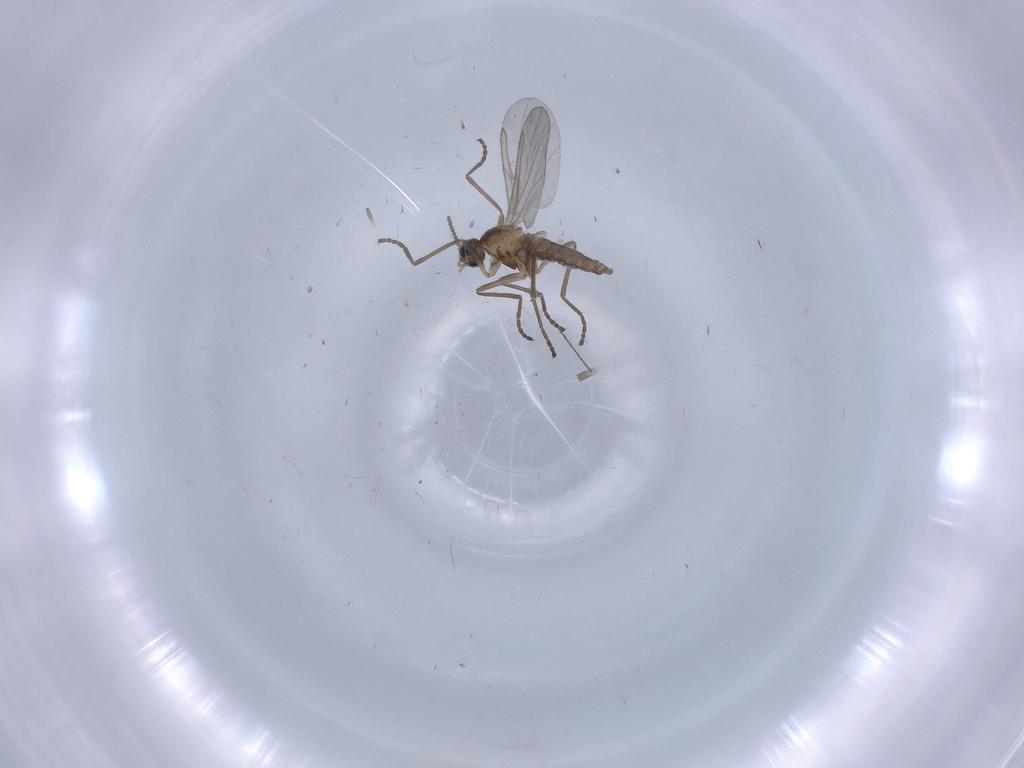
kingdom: Animalia
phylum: Arthropoda
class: Insecta
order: Diptera
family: Cecidomyiidae
